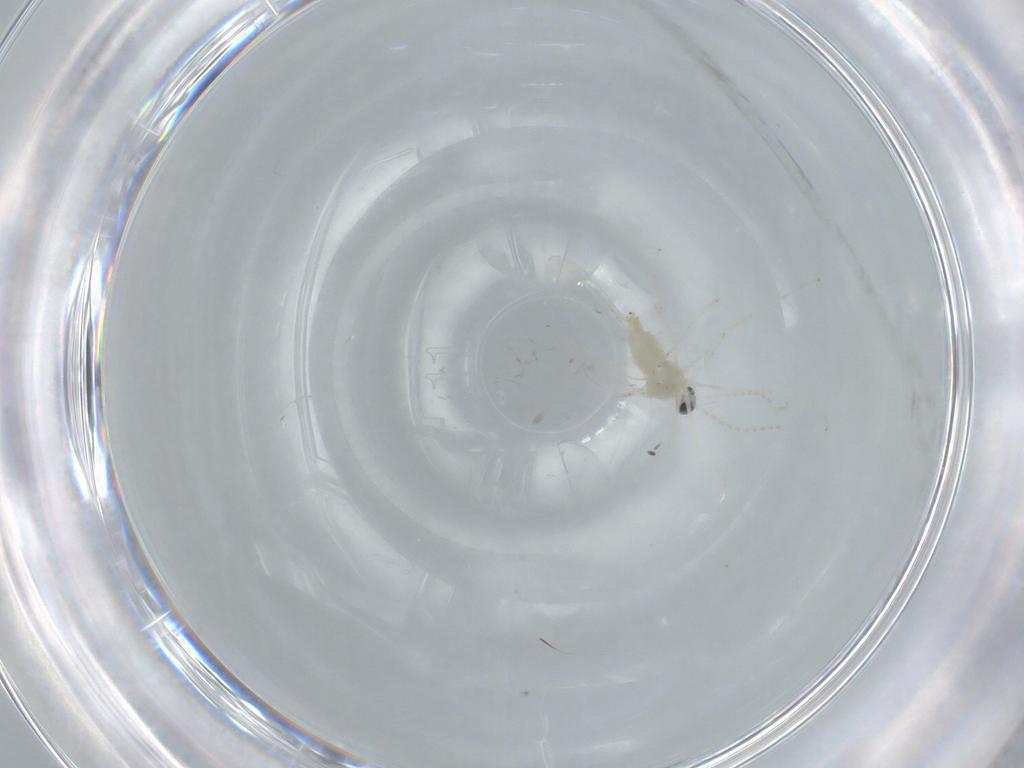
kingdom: Animalia
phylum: Arthropoda
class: Insecta
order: Diptera
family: Cecidomyiidae
